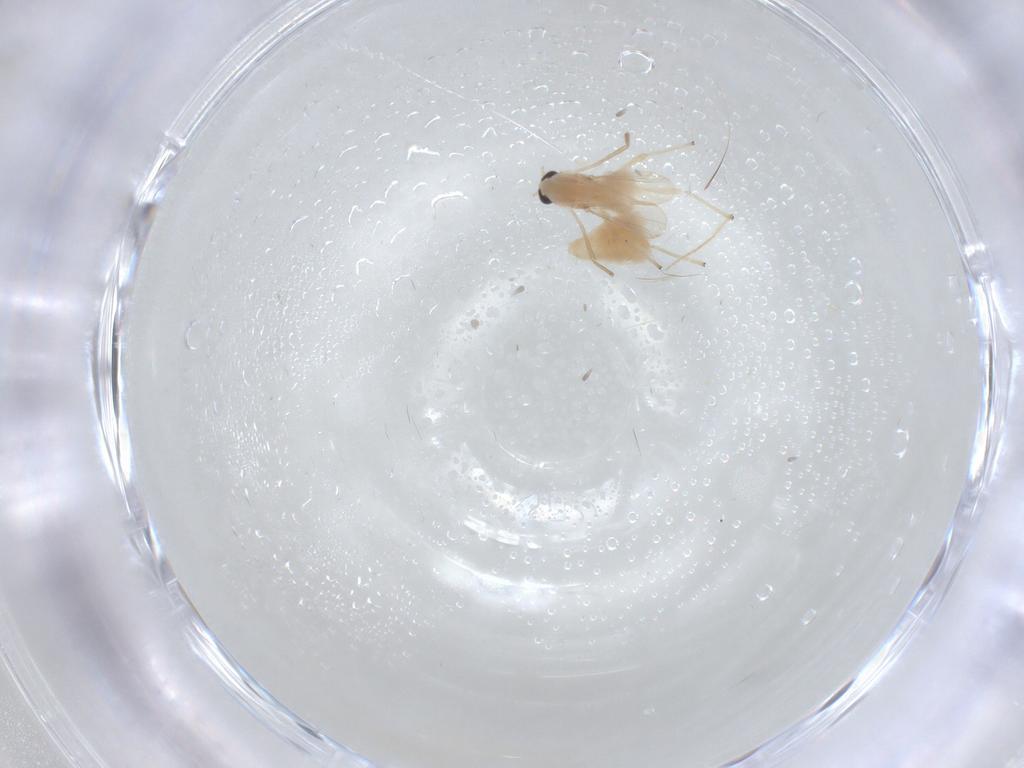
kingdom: Animalia
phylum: Arthropoda
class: Insecta
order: Diptera
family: Chironomidae
